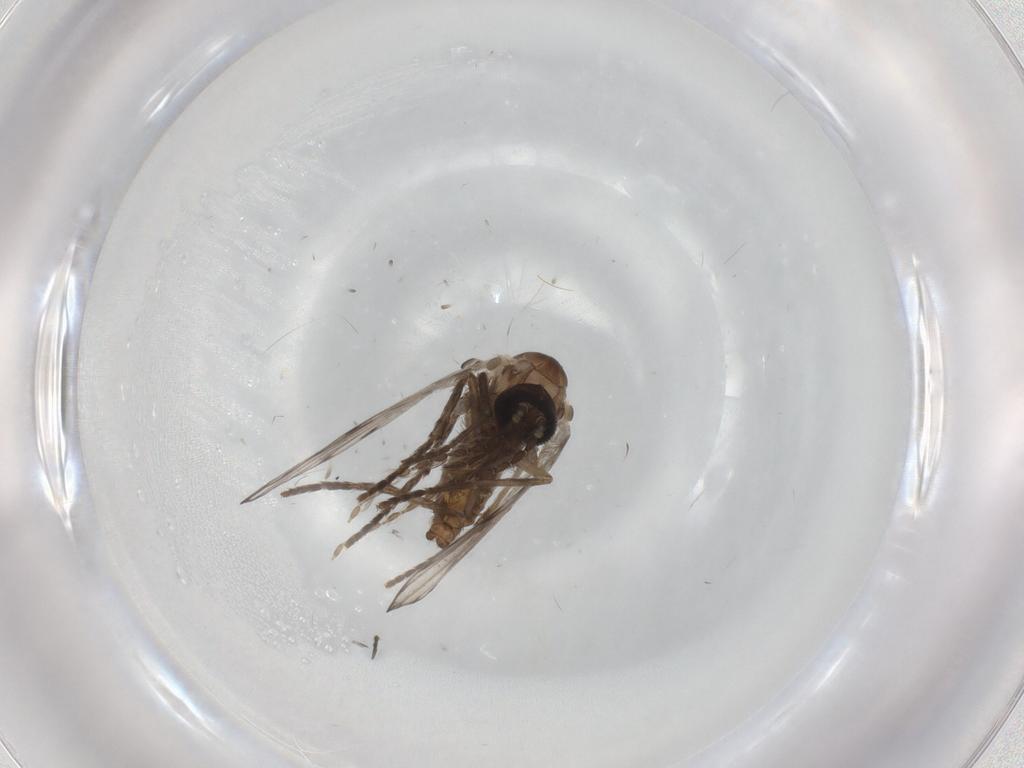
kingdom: Animalia
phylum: Arthropoda
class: Insecta
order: Diptera
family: Psychodidae
